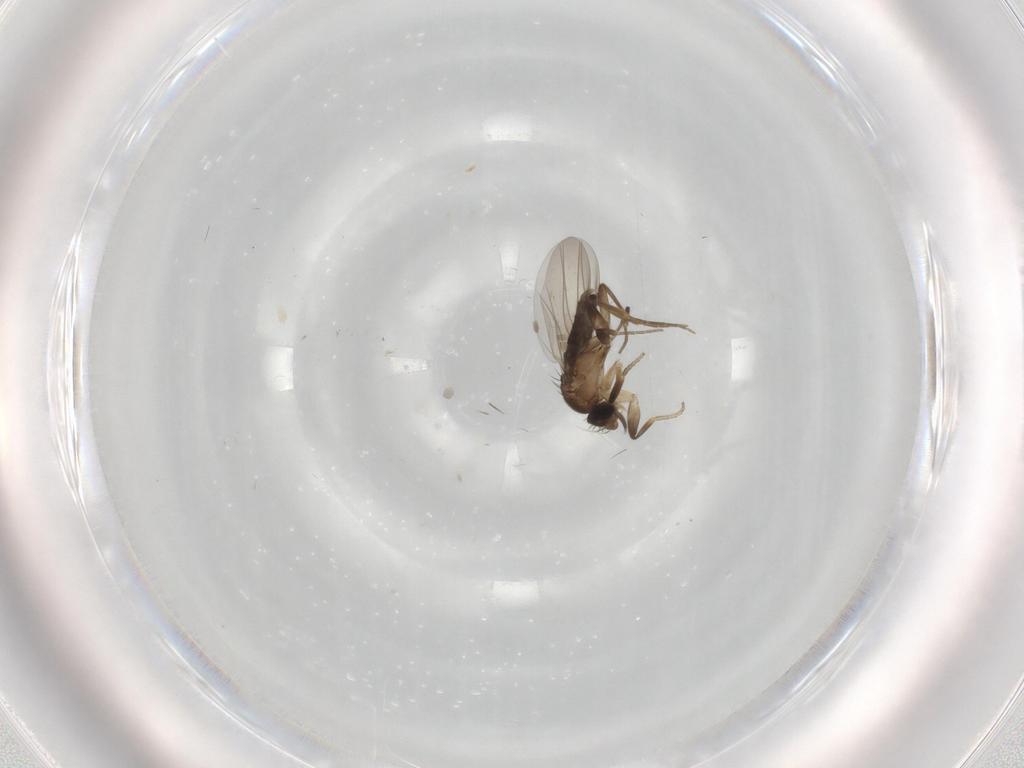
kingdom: Animalia
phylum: Arthropoda
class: Insecta
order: Diptera
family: Phoridae
